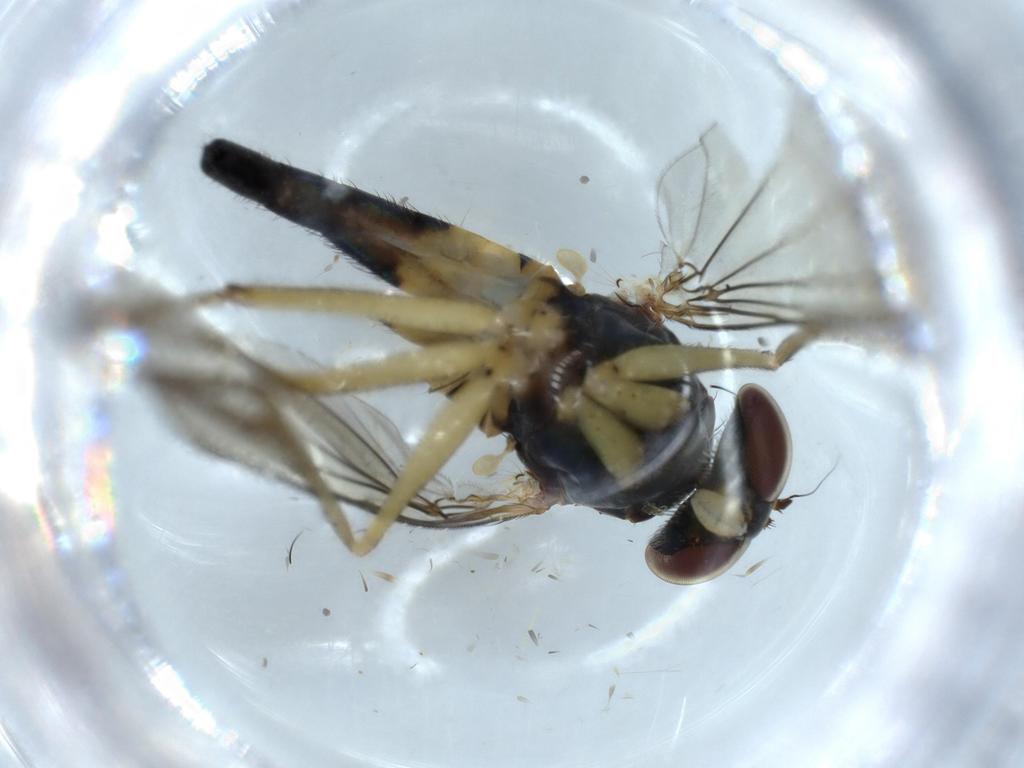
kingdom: Animalia
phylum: Arthropoda
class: Insecta
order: Diptera
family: Dolichopodidae
